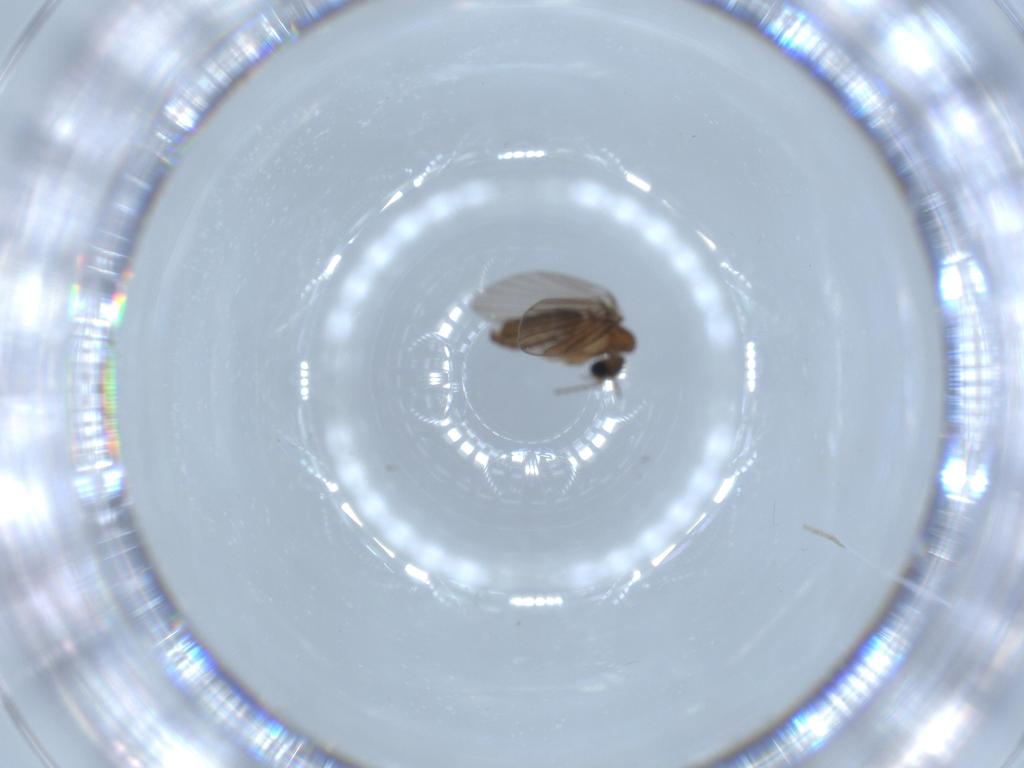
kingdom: Animalia
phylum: Arthropoda
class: Insecta
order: Diptera
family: Psychodidae
